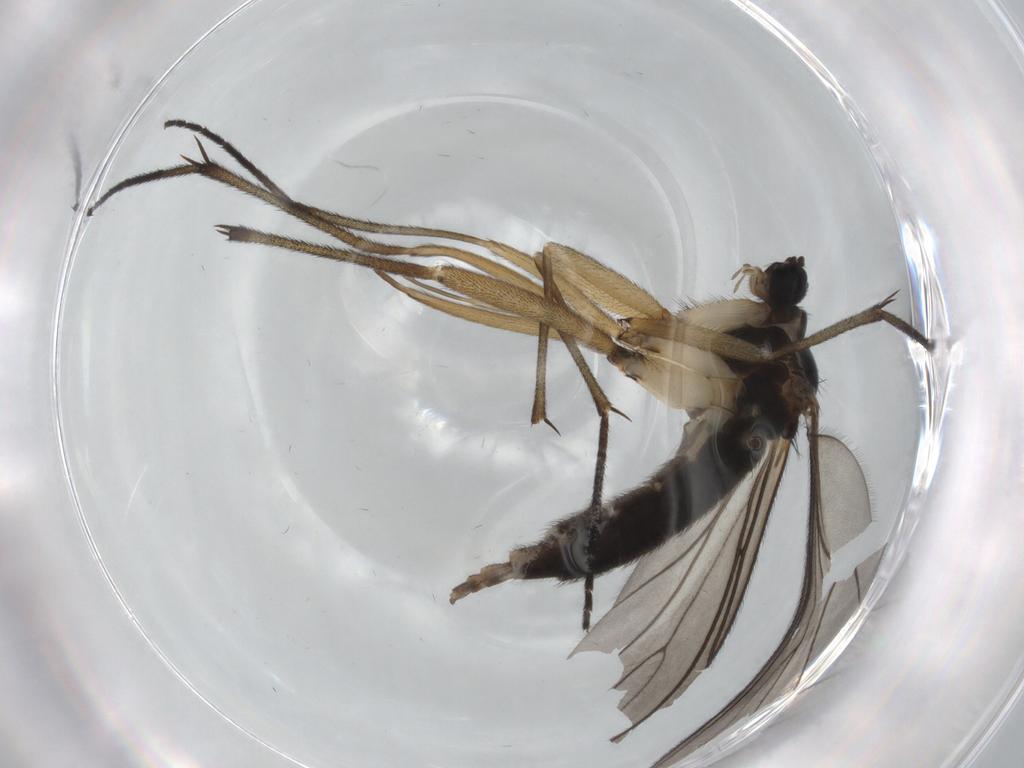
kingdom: Animalia
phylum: Arthropoda
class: Insecta
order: Diptera
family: Sciaridae
